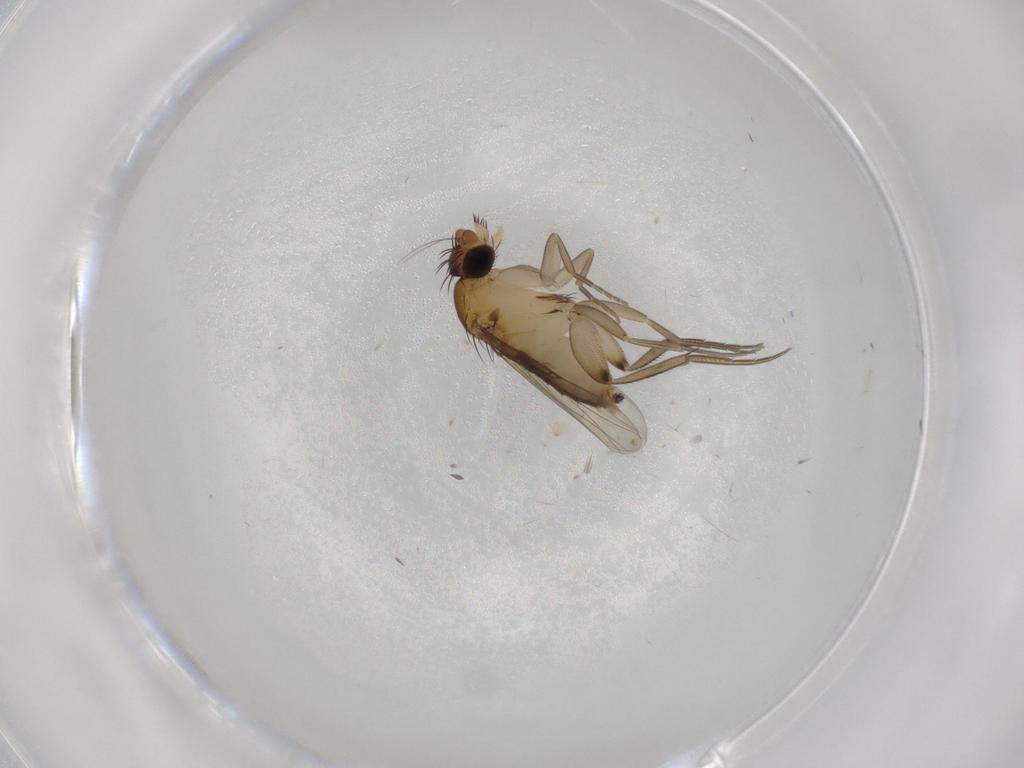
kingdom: Animalia
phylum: Arthropoda
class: Insecta
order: Diptera
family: Phoridae
